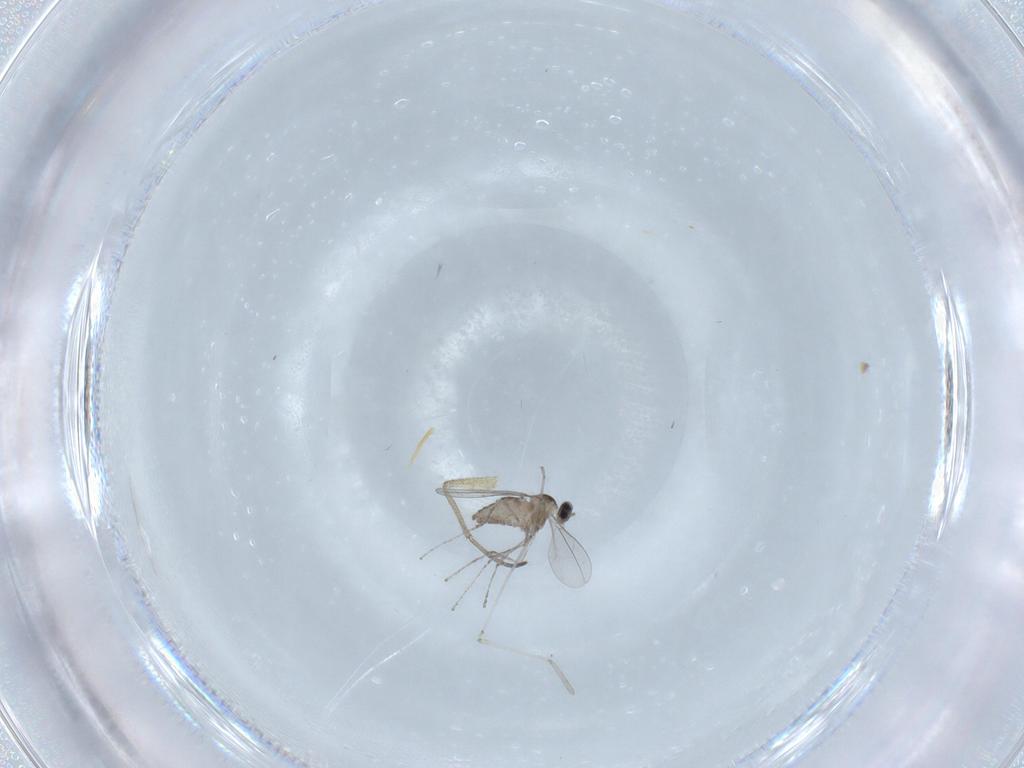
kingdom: Animalia
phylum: Arthropoda
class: Insecta
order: Diptera
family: Cecidomyiidae
